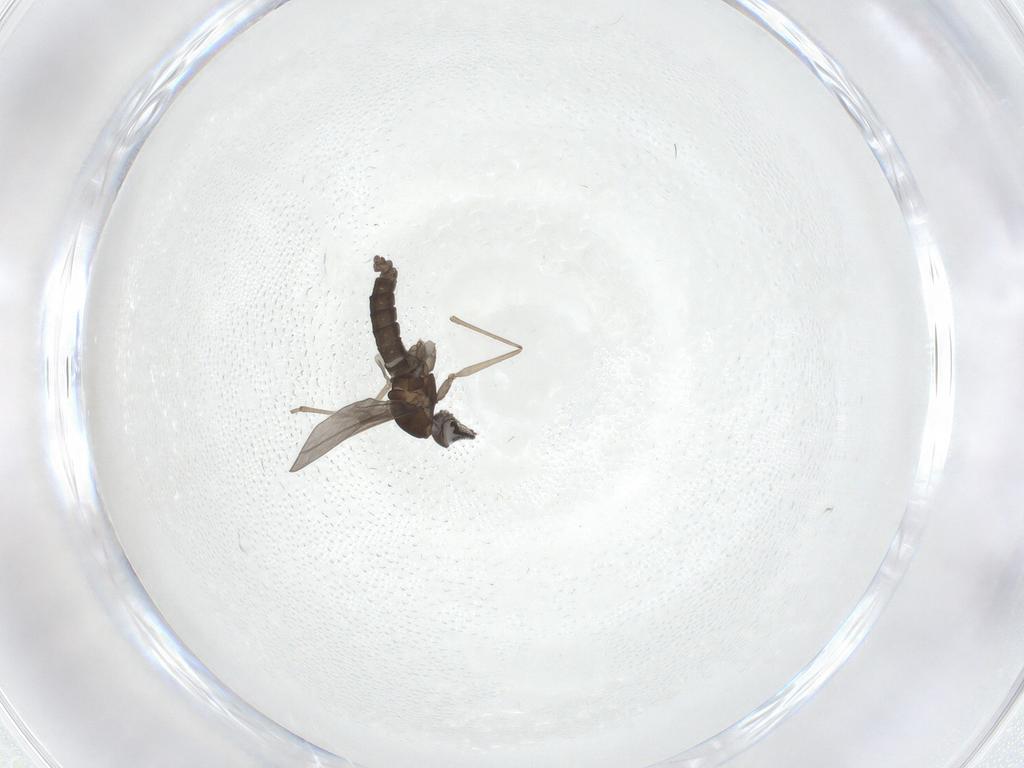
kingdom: Animalia
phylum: Arthropoda
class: Insecta
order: Diptera
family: Cecidomyiidae
